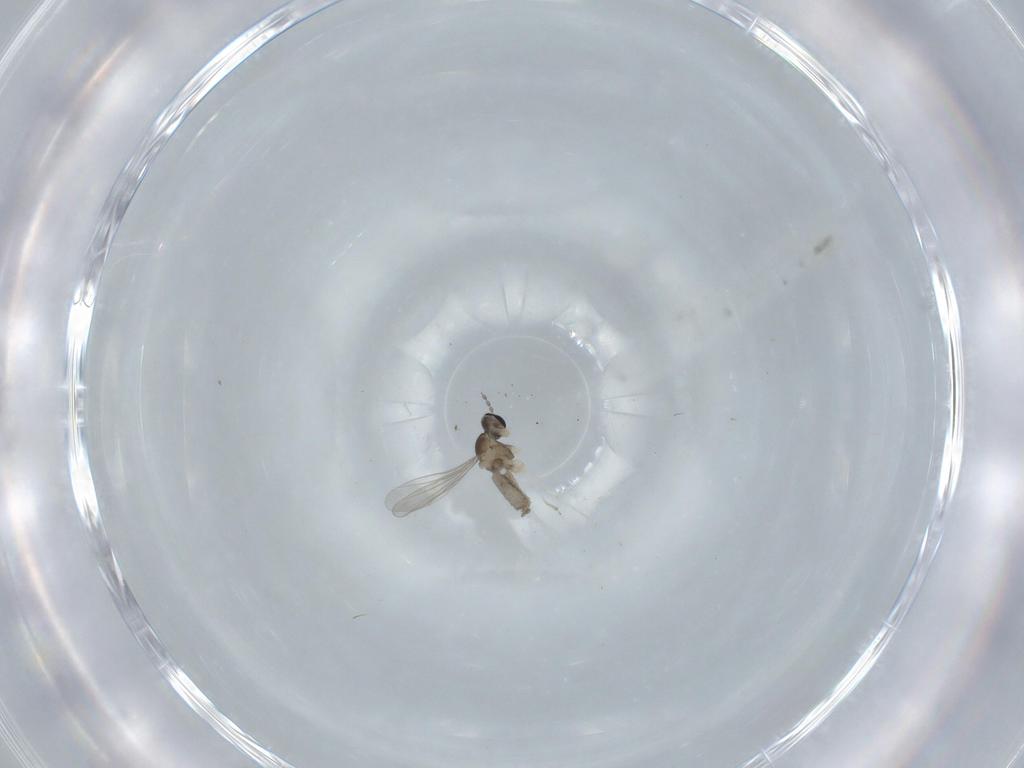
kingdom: Animalia
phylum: Arthropoda
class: Insecta
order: Diptera
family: Cecidomyiidae
